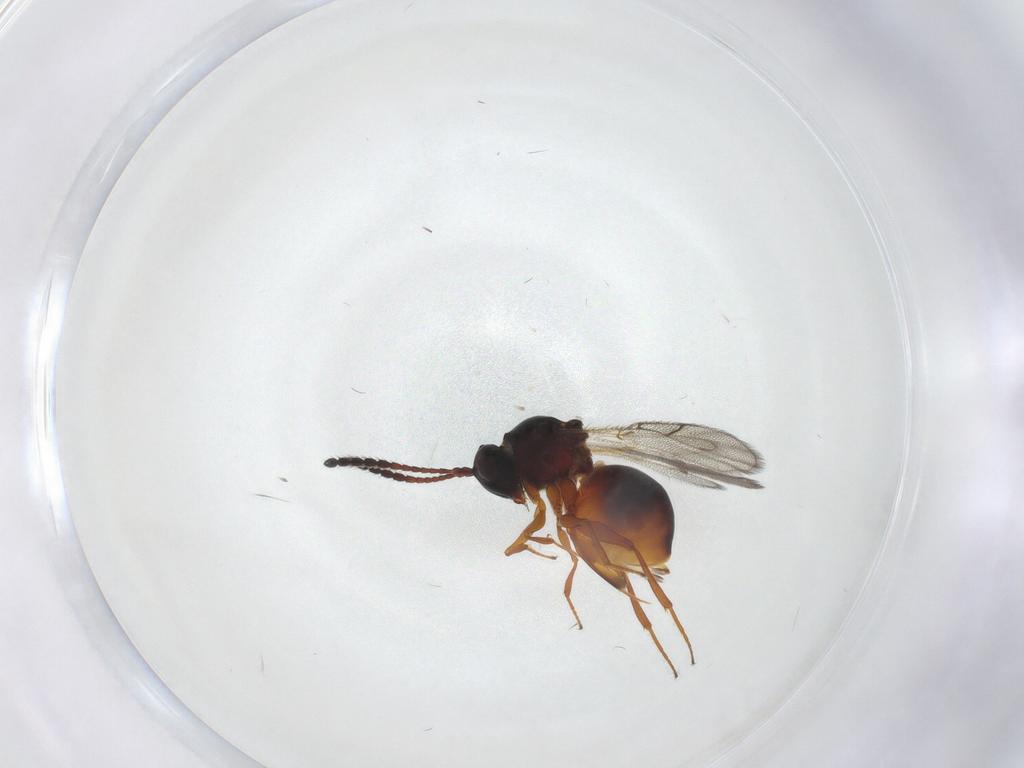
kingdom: Animalia
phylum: Arthropoda
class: Insecta
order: Hymenoptera
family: Figitidae
